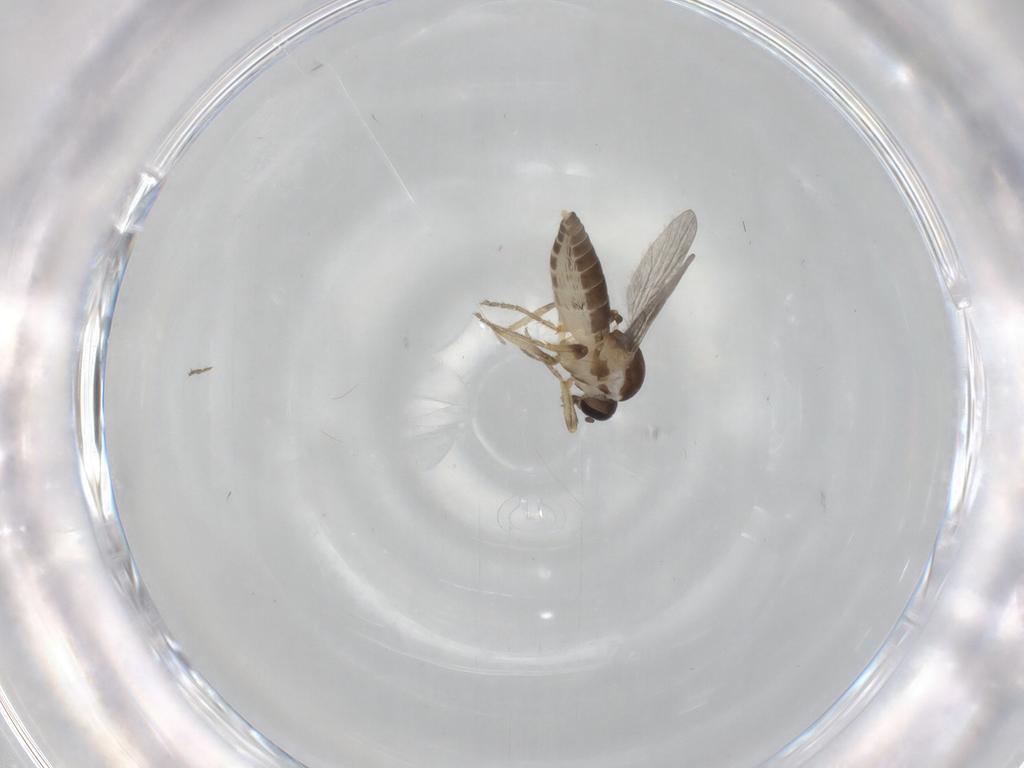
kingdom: Animalia
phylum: Arthropoda
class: Insecta
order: Diptera
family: Ceratopogonidae
